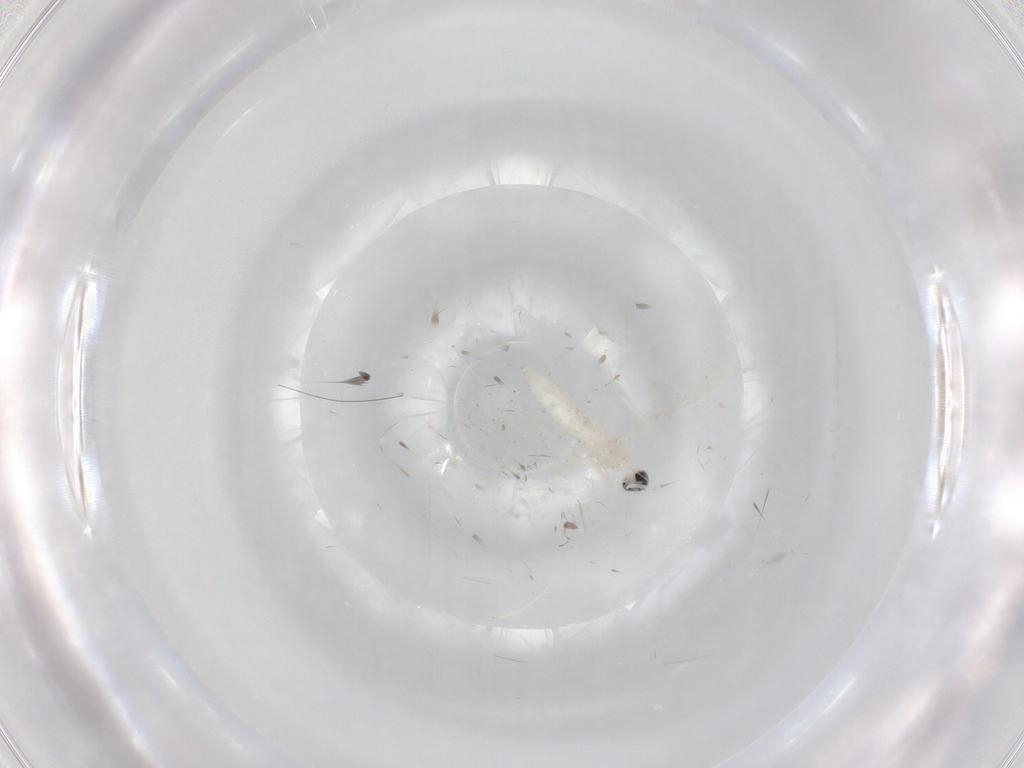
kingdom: Animalia
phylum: Arthropoda
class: Insecta
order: Diptera
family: Cecidomyiidae
